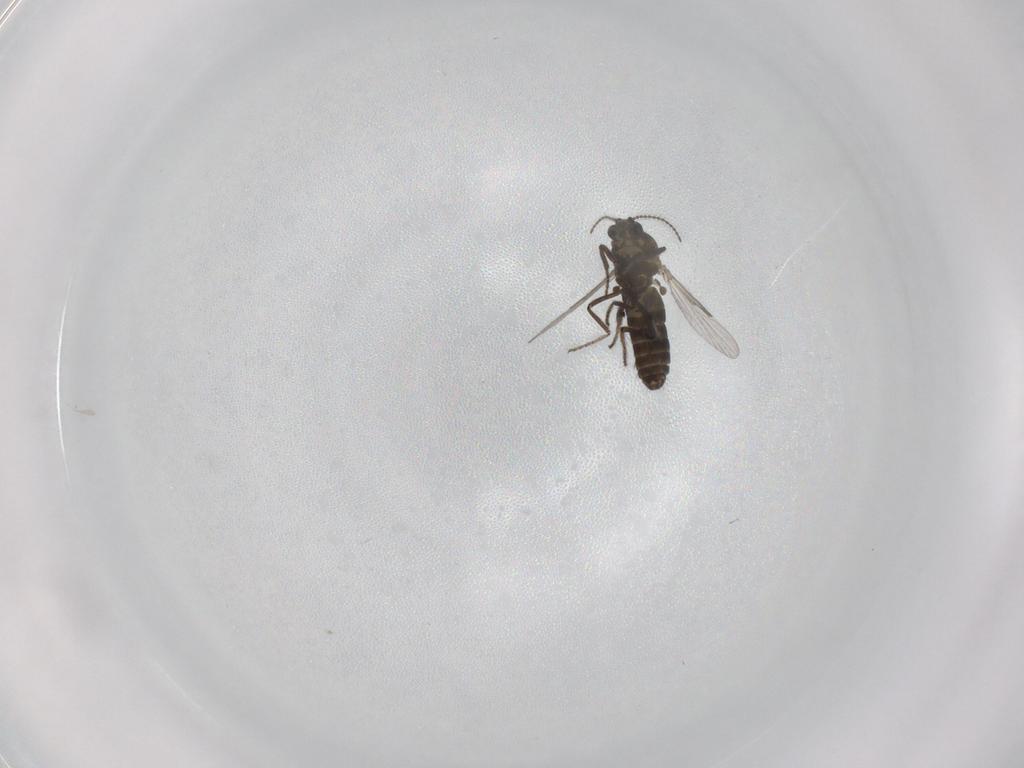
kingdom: Animalia
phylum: Arthropoda
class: Insecta
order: Diptera
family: Ceratopogonidae
